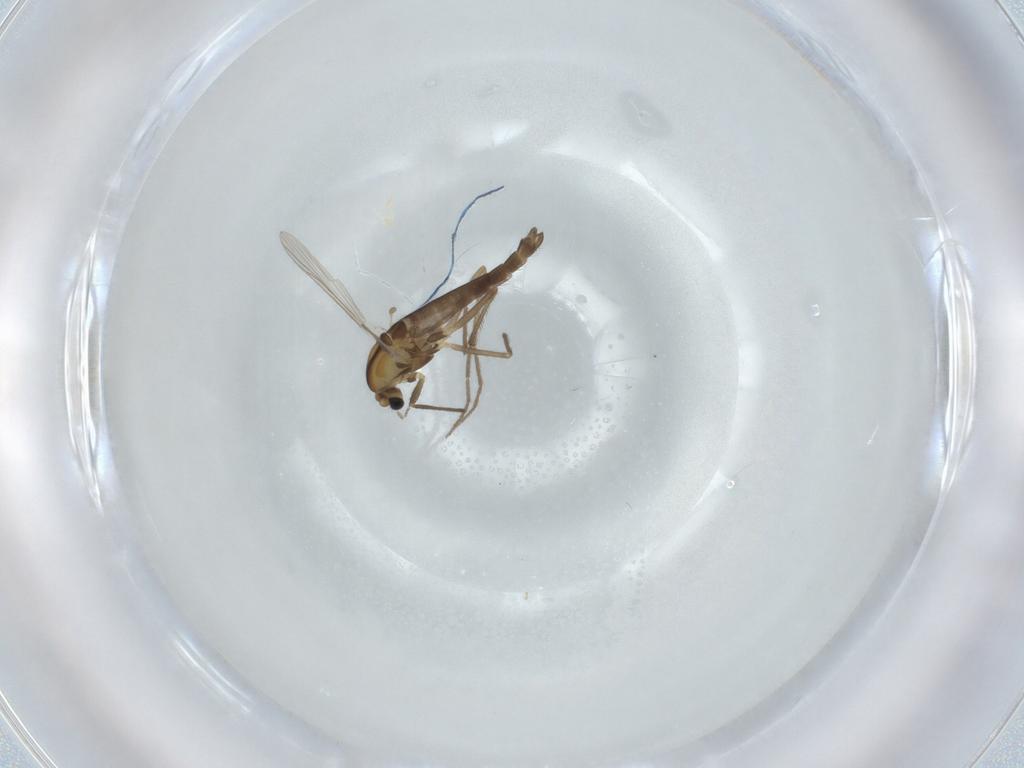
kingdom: Animalia
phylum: Arthropoda
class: Insecta
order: Diptera
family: Chironomidae
